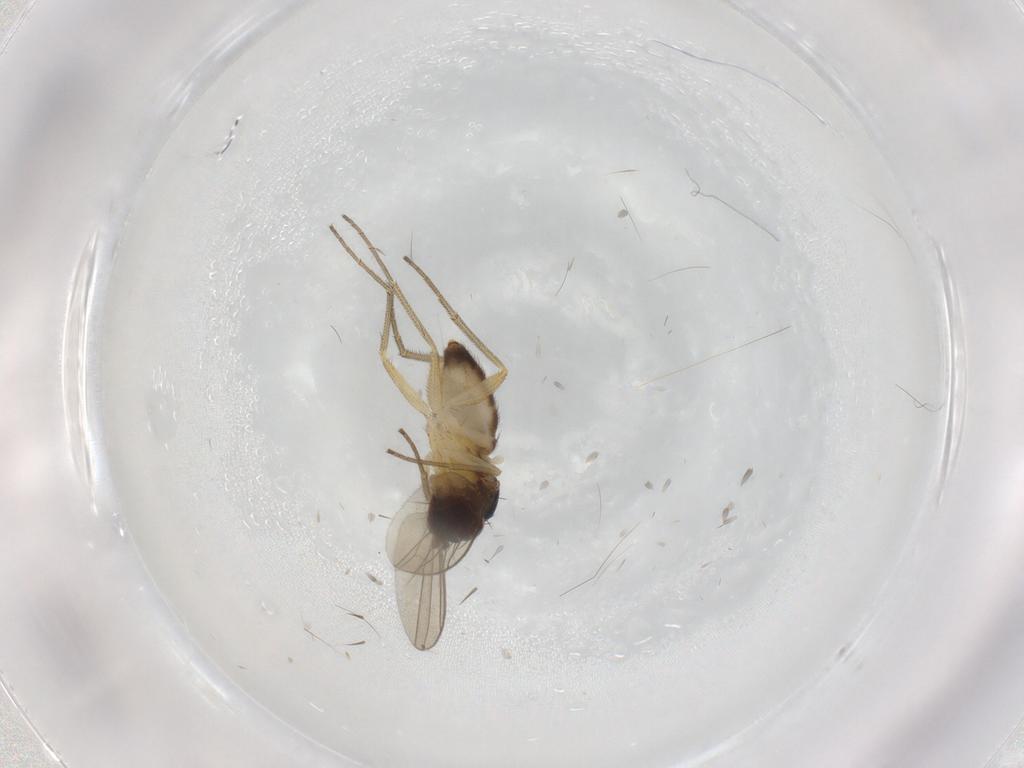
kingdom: Animalia
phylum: Arthropoda
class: Insecta
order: Diptera
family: Dolichopodidae
